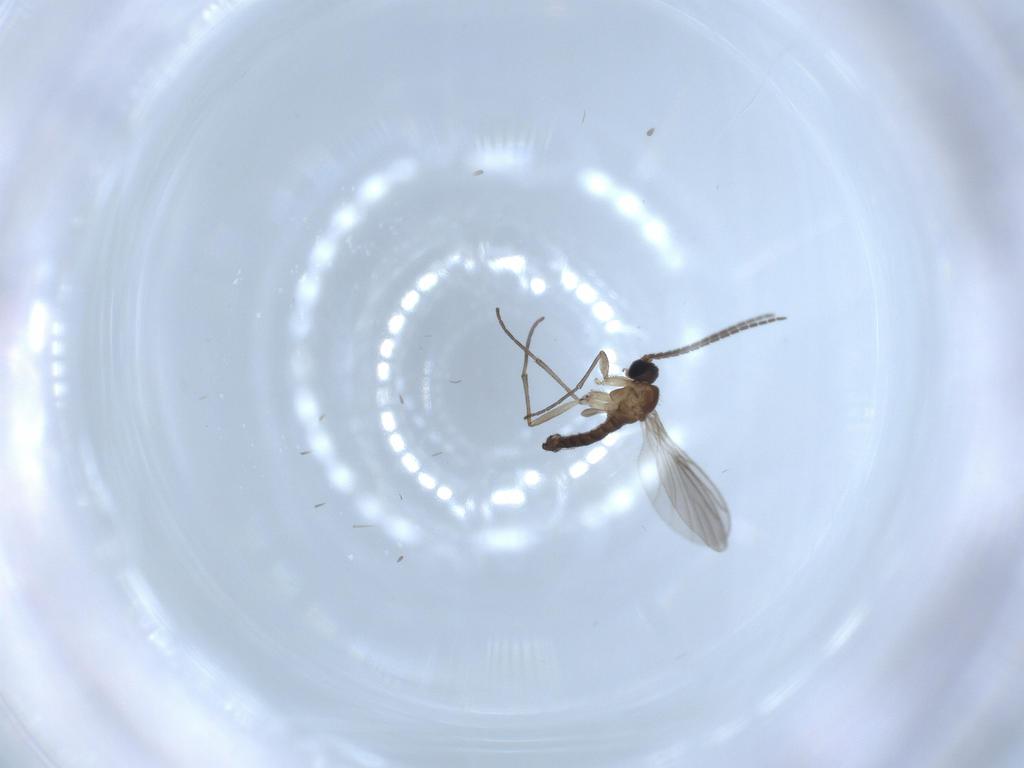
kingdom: Animalia
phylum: Arthropoda
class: Insecta
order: Diptera
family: Sciaridae
